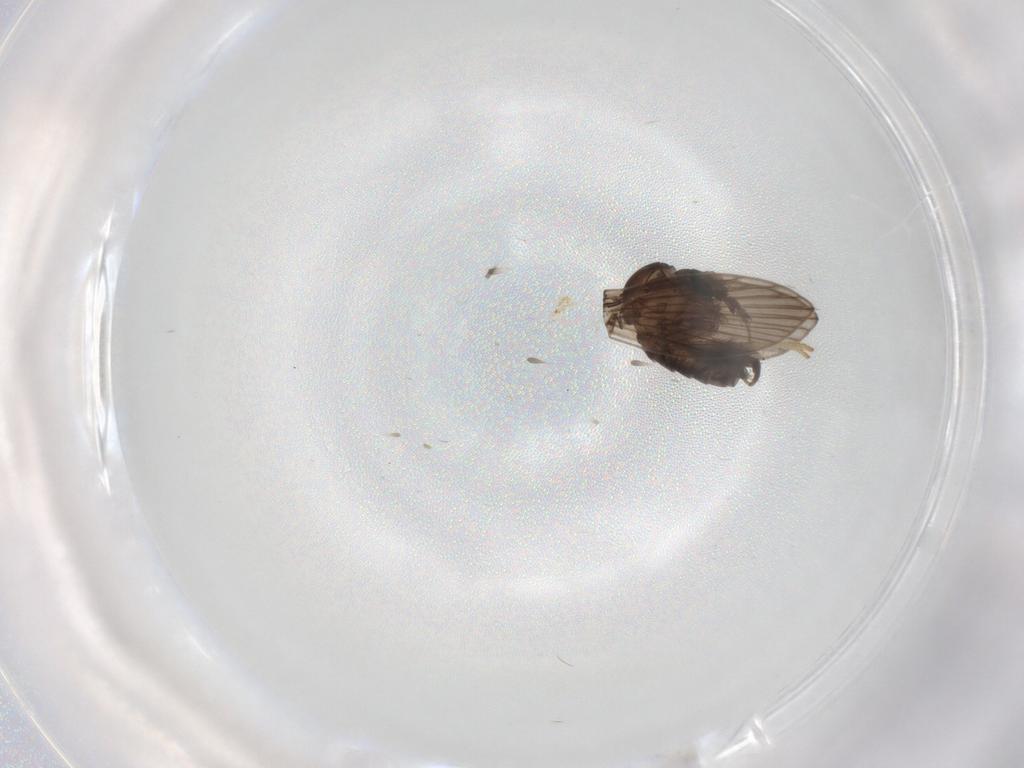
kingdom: Animalia
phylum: Arthropoda
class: Insecta
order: Diptera
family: Psychodidae
